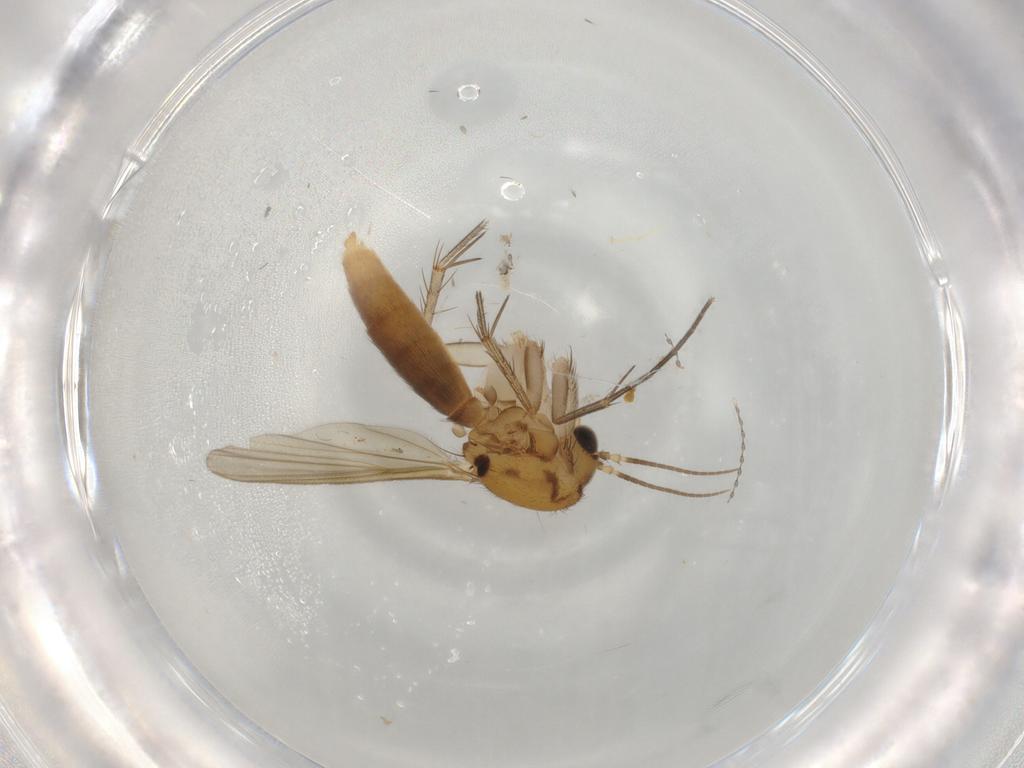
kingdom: Animalia
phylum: Arthropoda
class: Insecta
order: Diptera
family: Mycetophilidae
